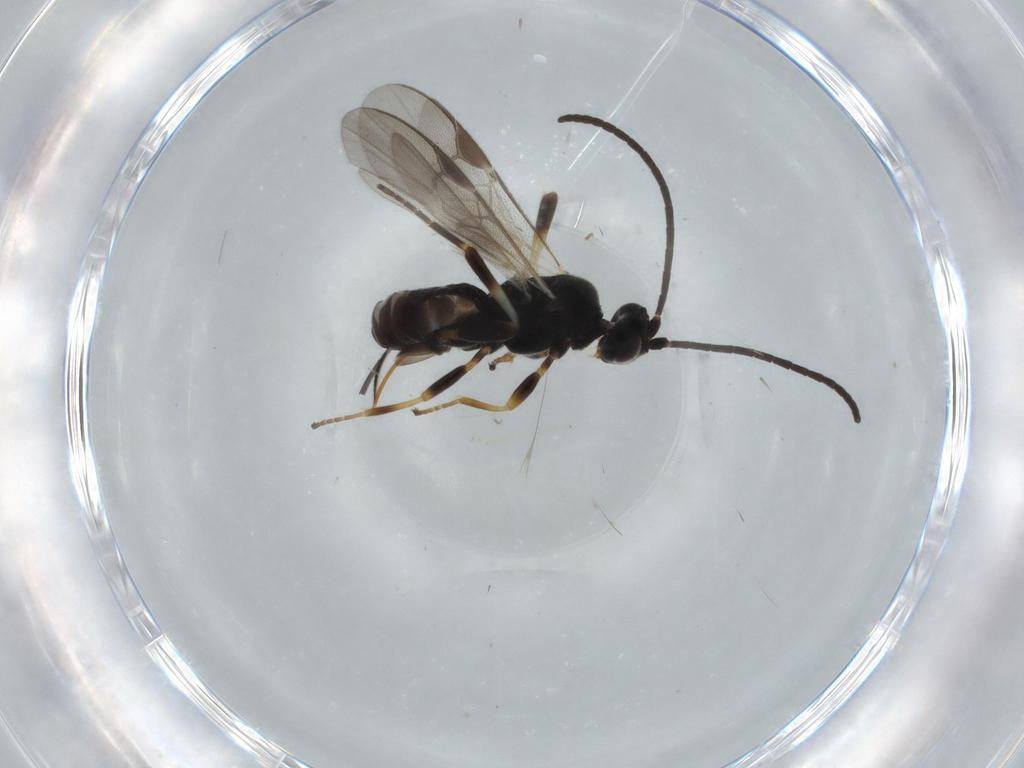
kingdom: Animalia
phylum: Arthropoda
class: Insecta
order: Hymenoptera
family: Braconidae
